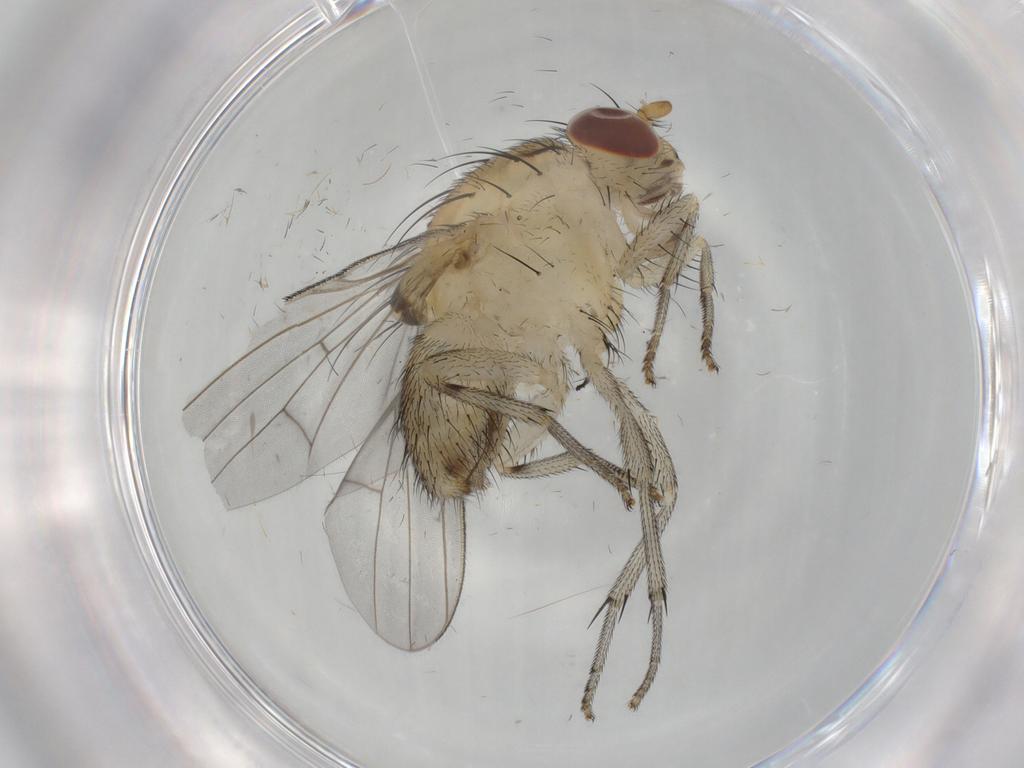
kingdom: Animalia
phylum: Arthropoda
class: Insecta
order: Diptera
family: Lauxaniidae
